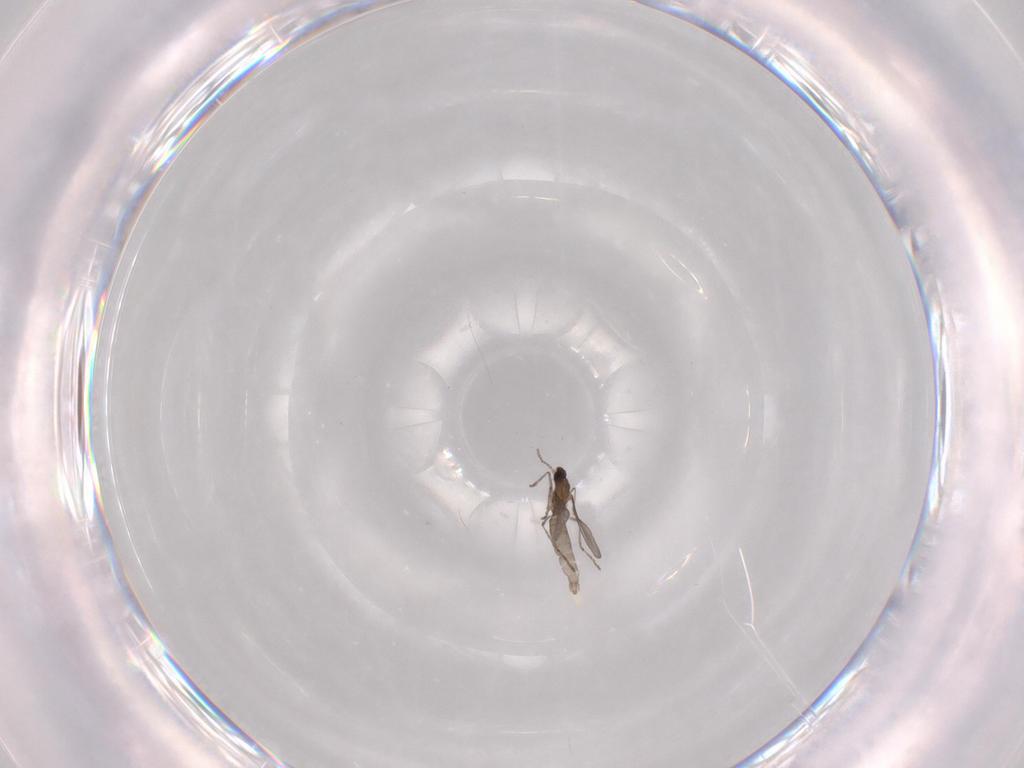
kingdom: Animalia
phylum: Arthropoda
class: Insecta
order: Diptera
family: Cecidomyiidae
